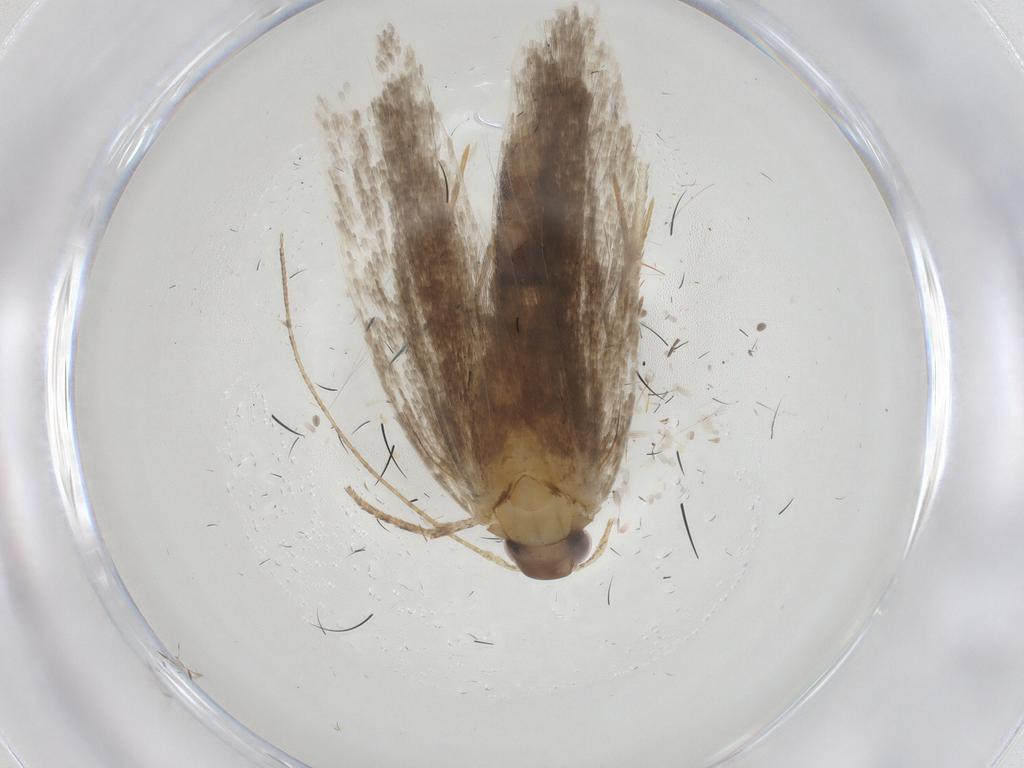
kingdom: Animalia
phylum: Arthropoda
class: Insecta
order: Lepidoptera
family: Gelechiidae
